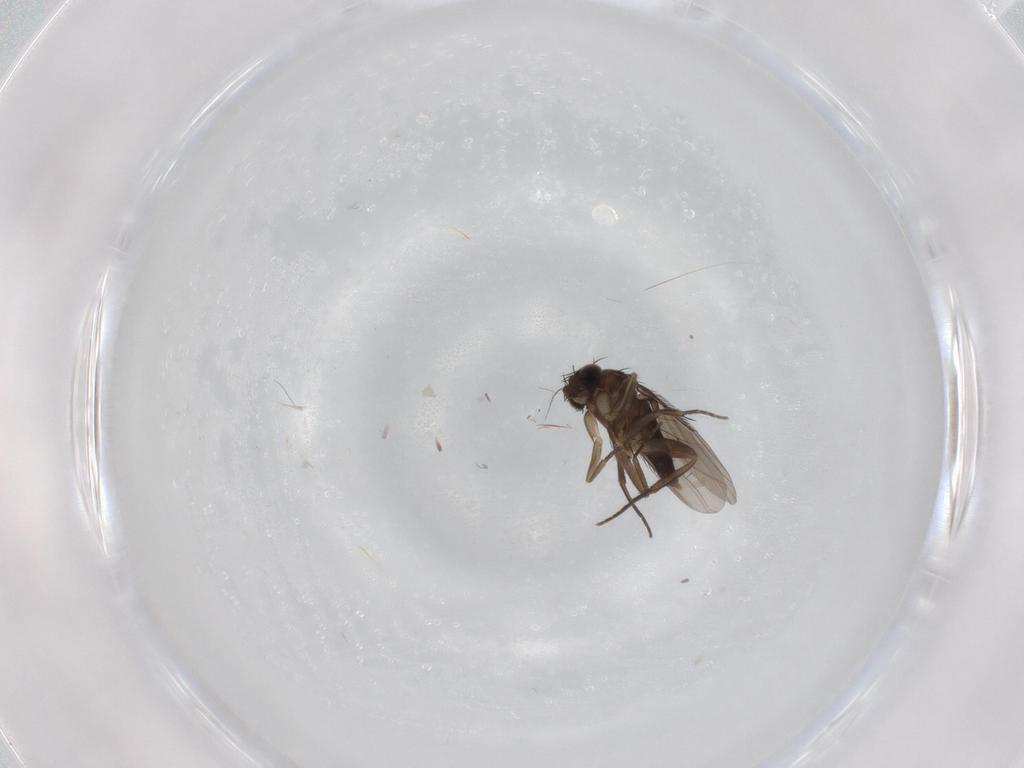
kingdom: Animalia
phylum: Arthropoda
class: Insecta
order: Diptera
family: Phoridae
